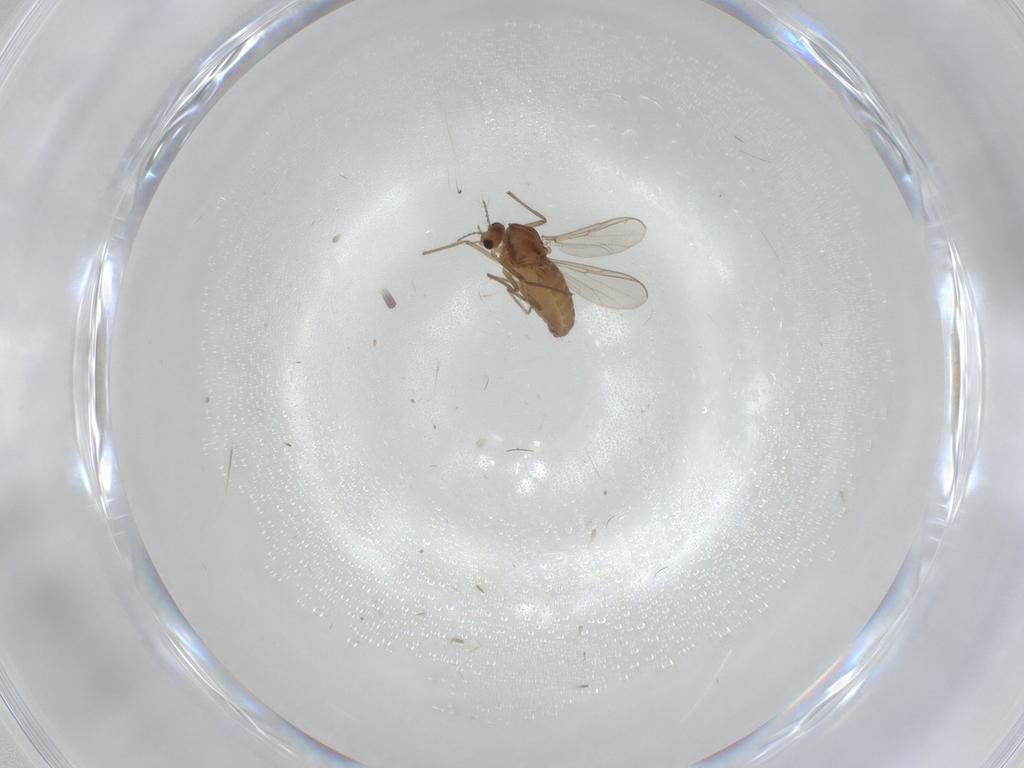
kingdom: Animalia
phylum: Arthropoda
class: Insecta
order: Diptera
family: Chironomidae
